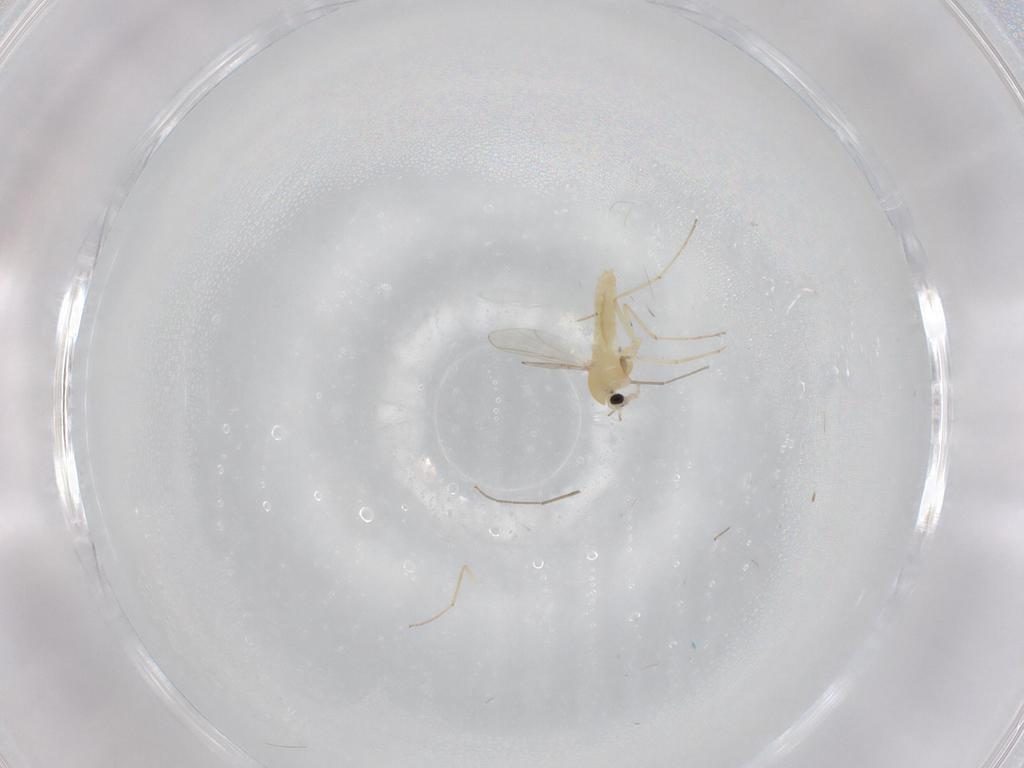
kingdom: Animalia
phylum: Arthropoda
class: Insecta
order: Diptera
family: Chironomidae
